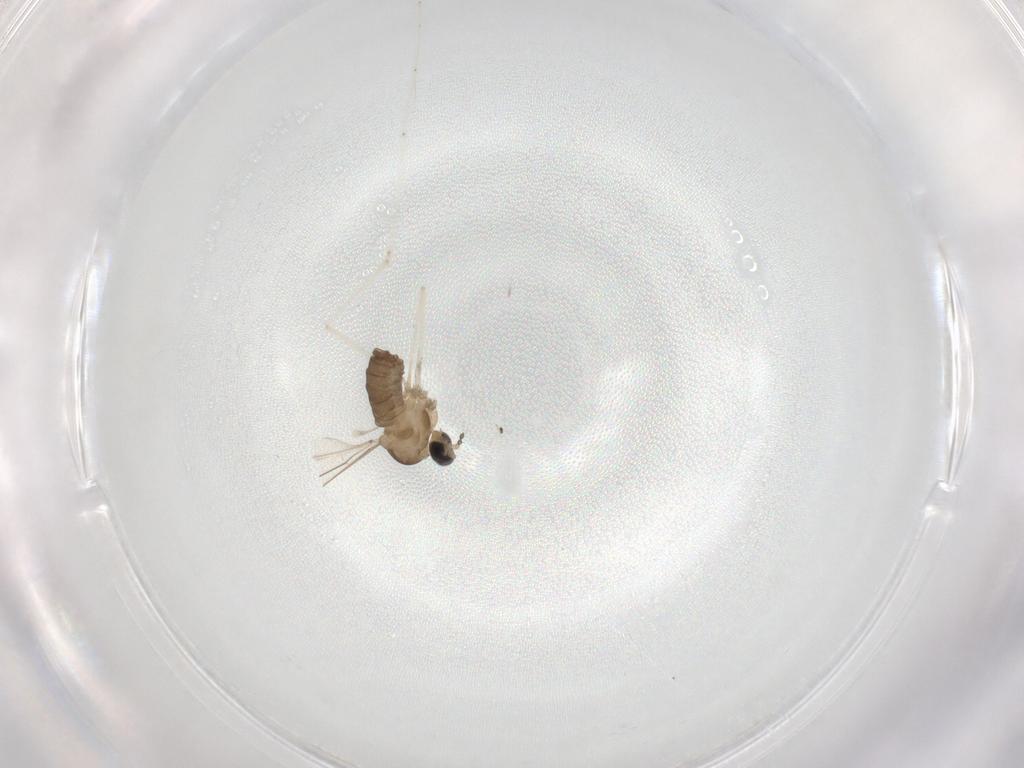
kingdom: Animalia
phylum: Arthropoda
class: Insecta
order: Diptera
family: Cecidomyiidae
